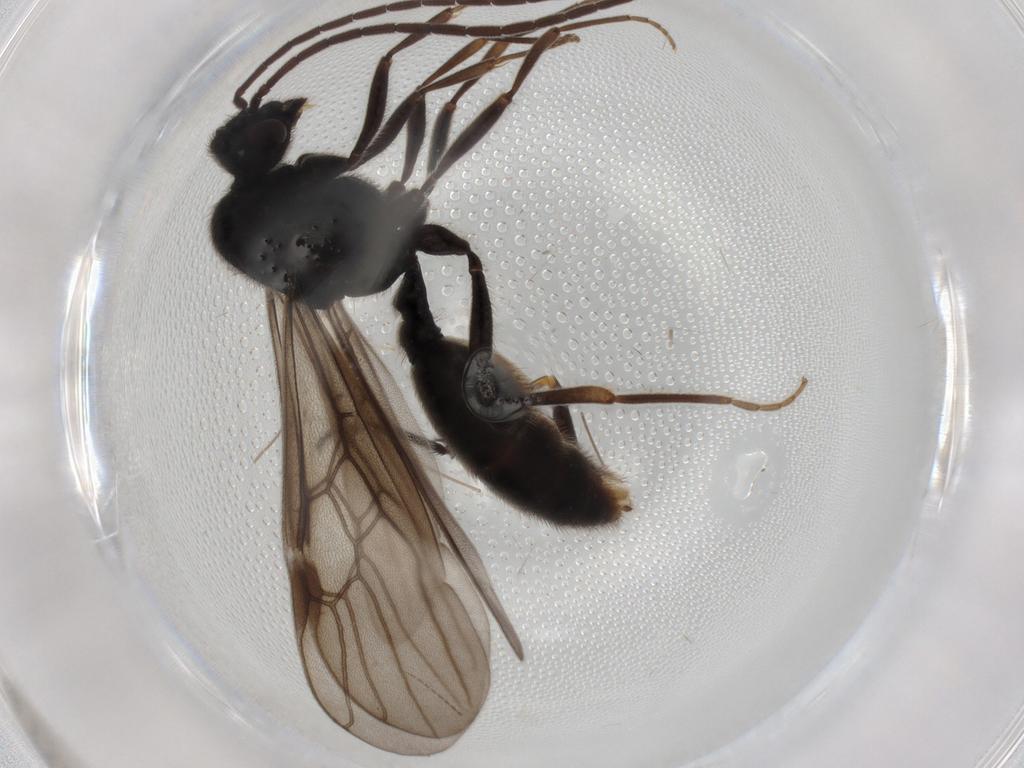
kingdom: Animalia
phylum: Arthropoda
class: Insecta
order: Hymenoptera
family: Formicidae
